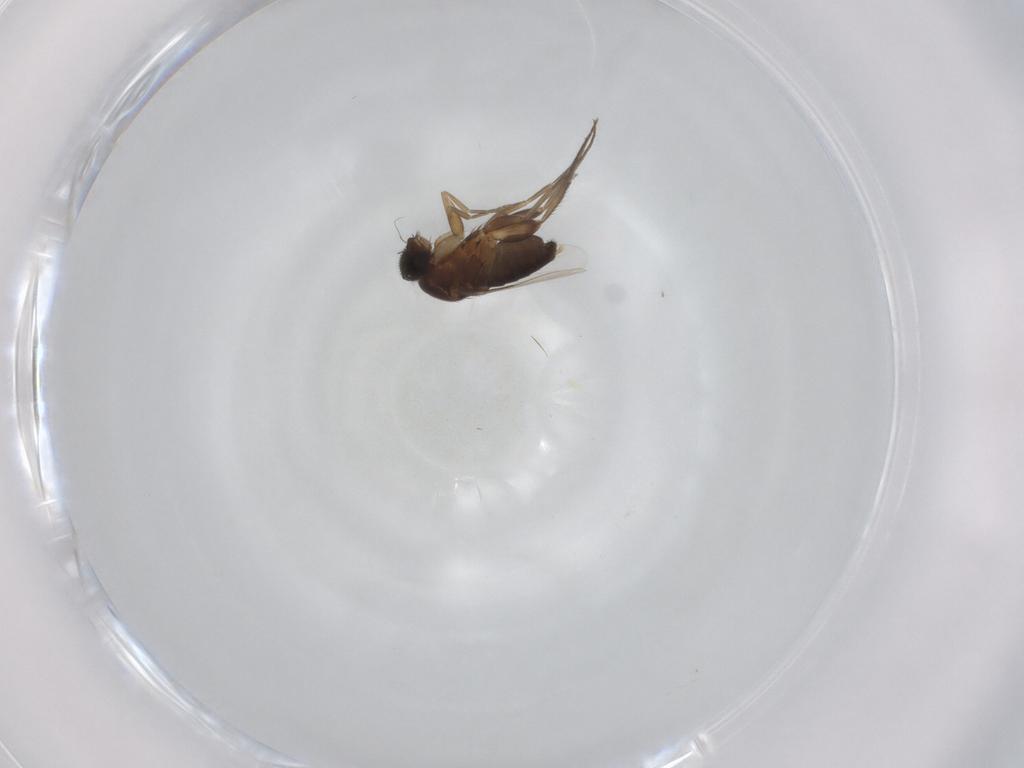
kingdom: Animalia
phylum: Arthropoda
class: Insecta
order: Diptera
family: Phoridae
